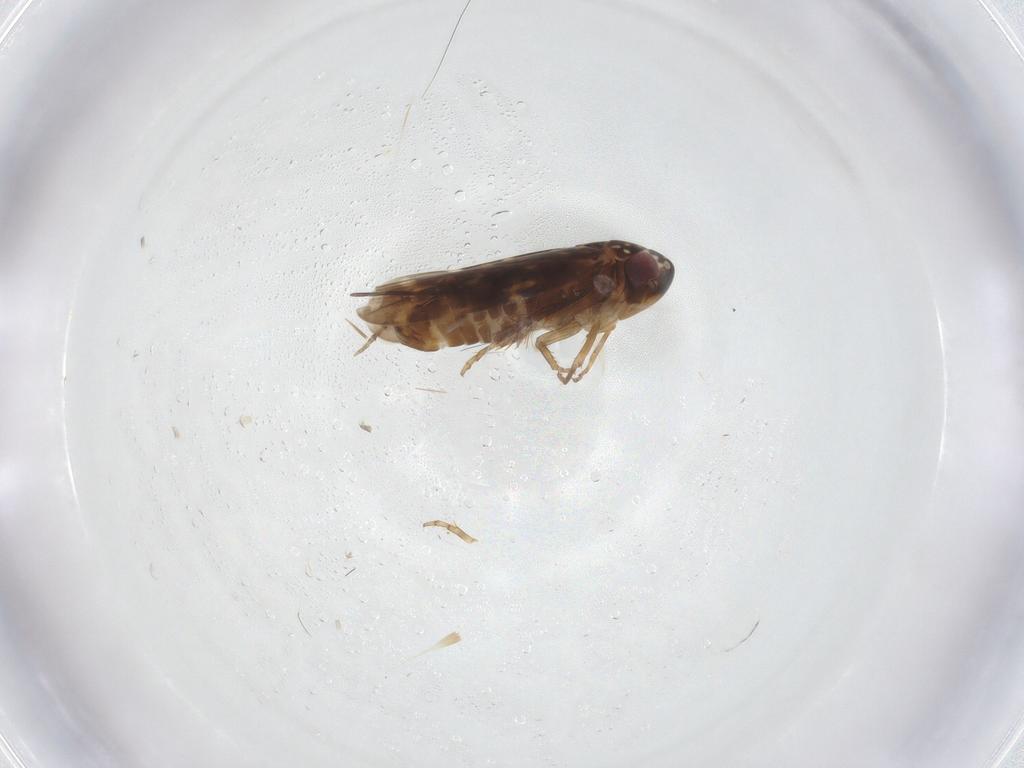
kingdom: Animalia
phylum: Arthropoda
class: Insecta
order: Hemiptera
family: Cicadellidae
